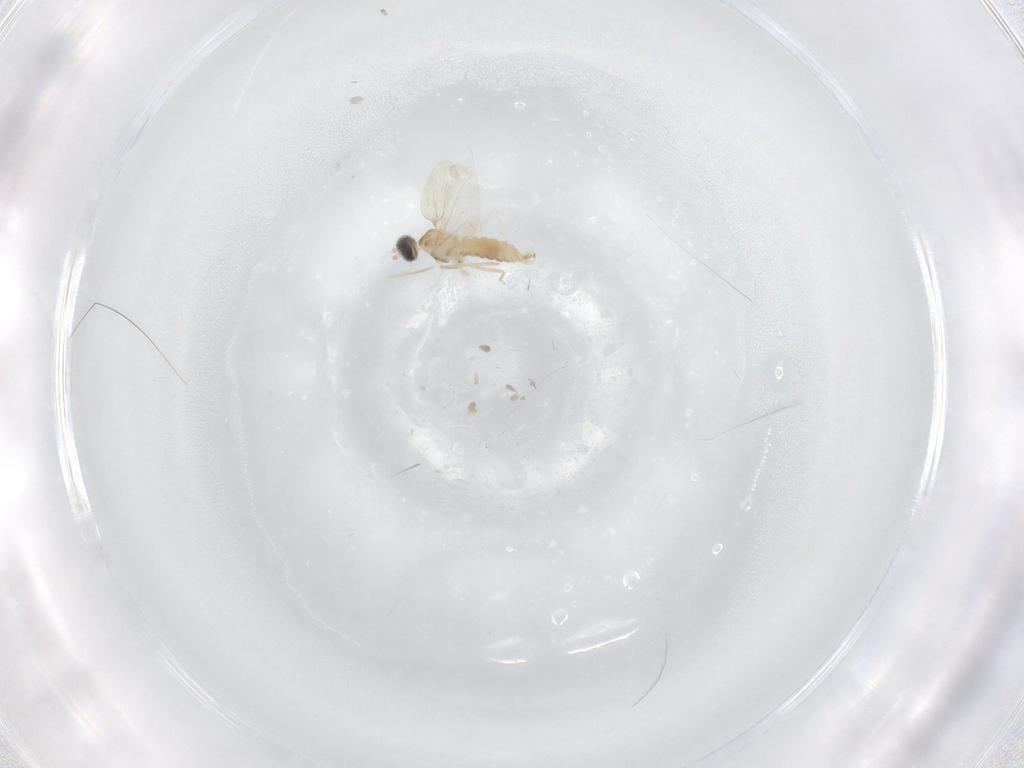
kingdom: Animalia
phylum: Arthropoda
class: Insecta
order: Diptera
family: Cecidomyiidae
